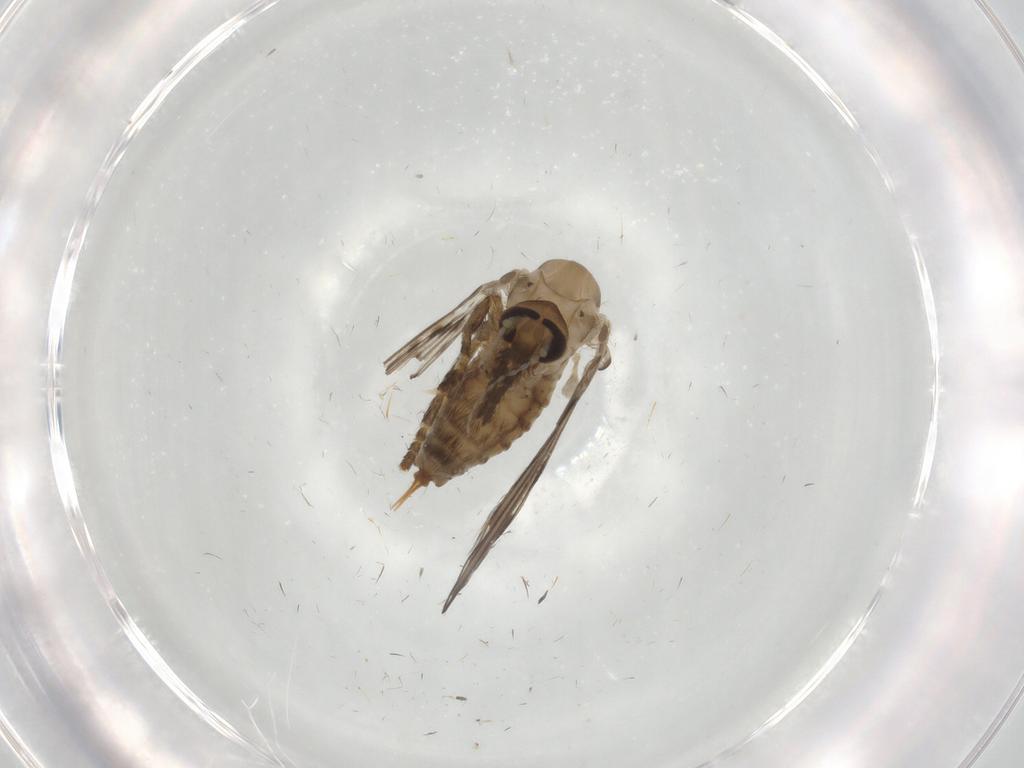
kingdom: Animalia
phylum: Arthropoda
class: Insecta
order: Diptera
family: Psychodidae
